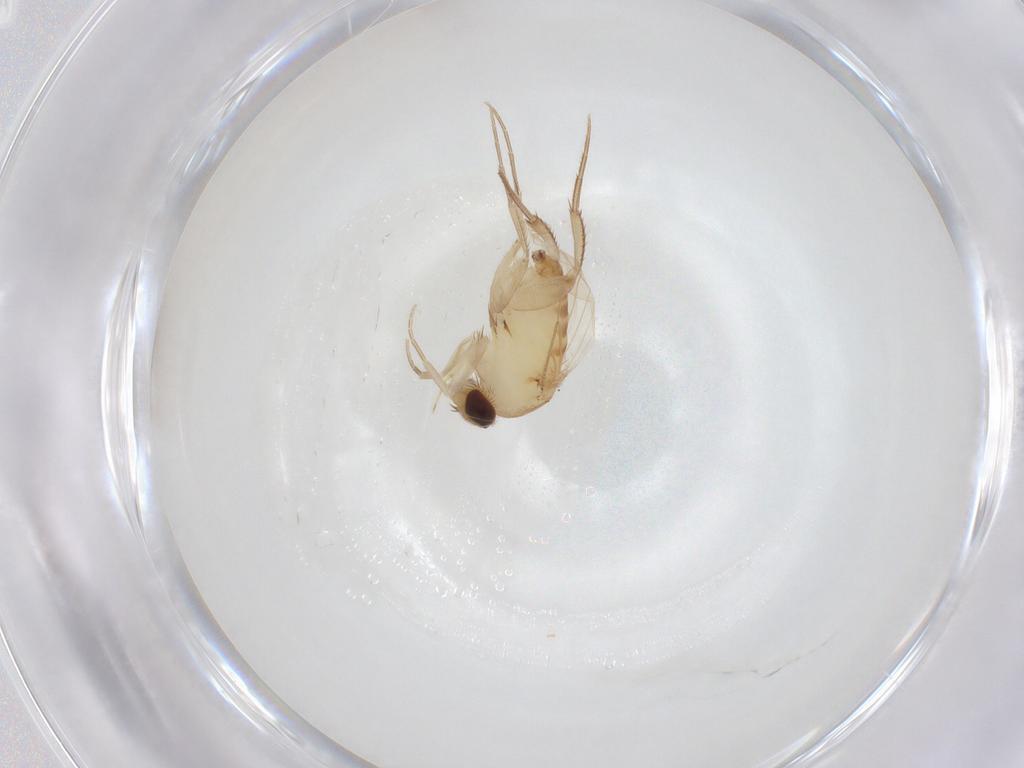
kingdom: Animalia
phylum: Arthropoda
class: Insecta
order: Diptera
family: Phoridae
